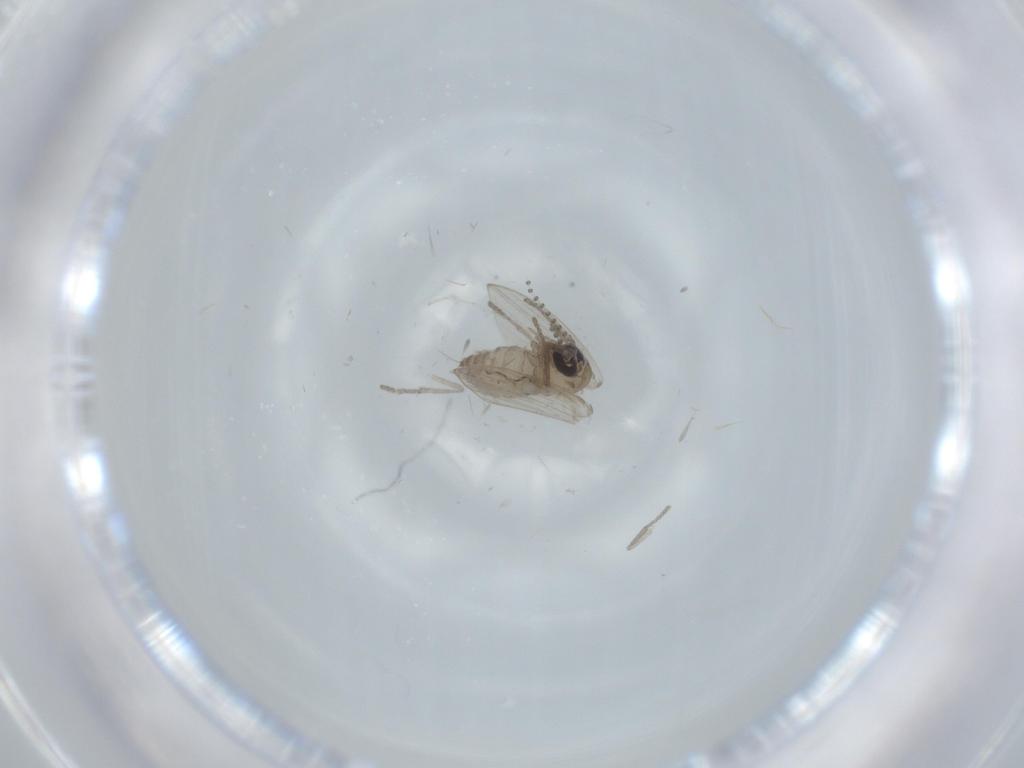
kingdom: Animalia
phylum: Arthropoda
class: Insecta
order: Diptera
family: Psychodidae
